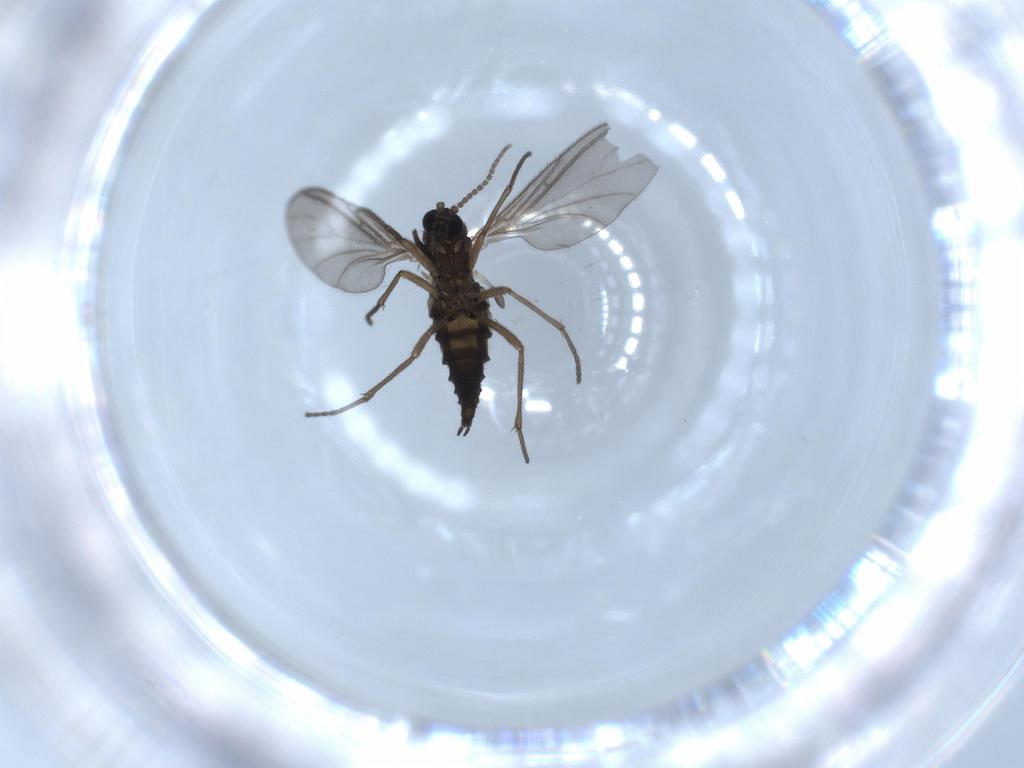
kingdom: Animalia
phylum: Arthropoda
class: Insecta
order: Diptera
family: Sciaridae
